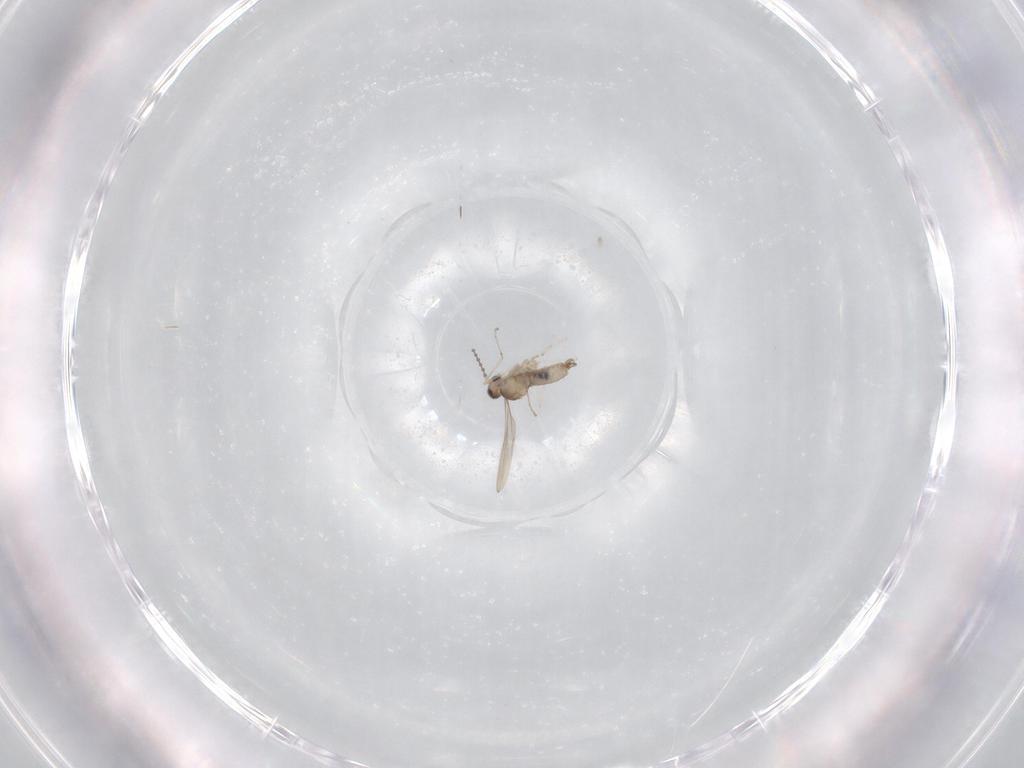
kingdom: Animalia
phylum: Arthropoda
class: Insecta
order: Diptera
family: Cecidomyiidae
